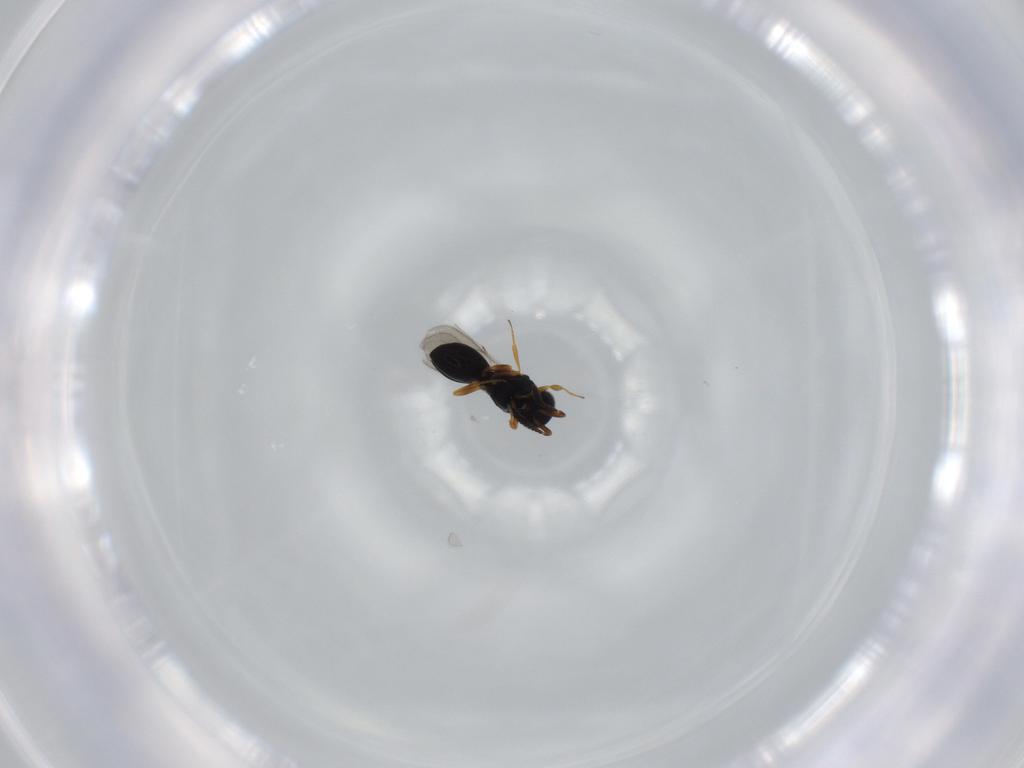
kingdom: Animalia
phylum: Arthropoda
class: Insecta
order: Hymenoptera
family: Scelionidae
